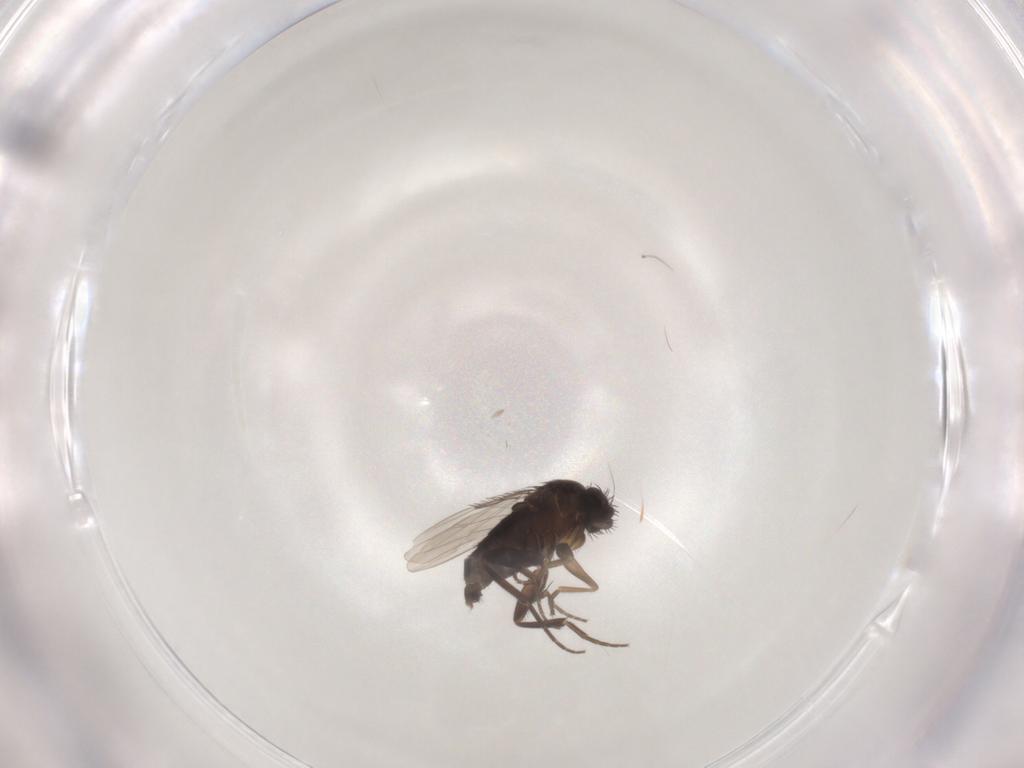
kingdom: Animalia
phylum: Arthropoda
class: Insecta
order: Diptera
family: Phoridae
